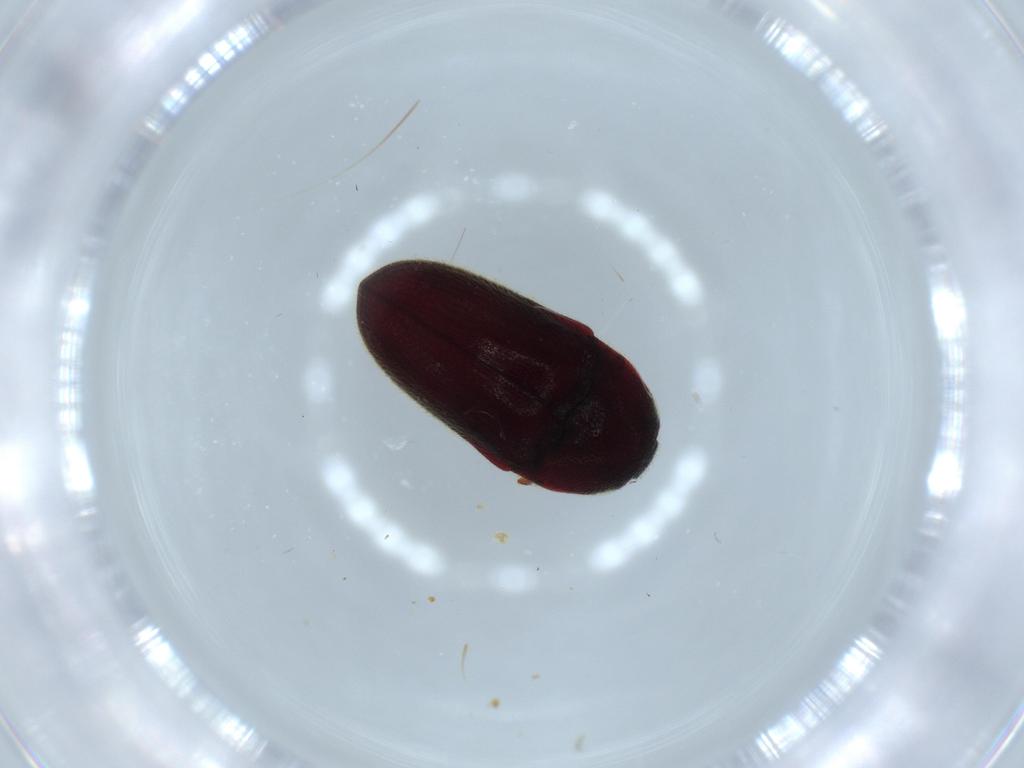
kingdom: Animalia
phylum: Arthropoda
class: Insecta
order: Coleoptera
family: Throscidae
